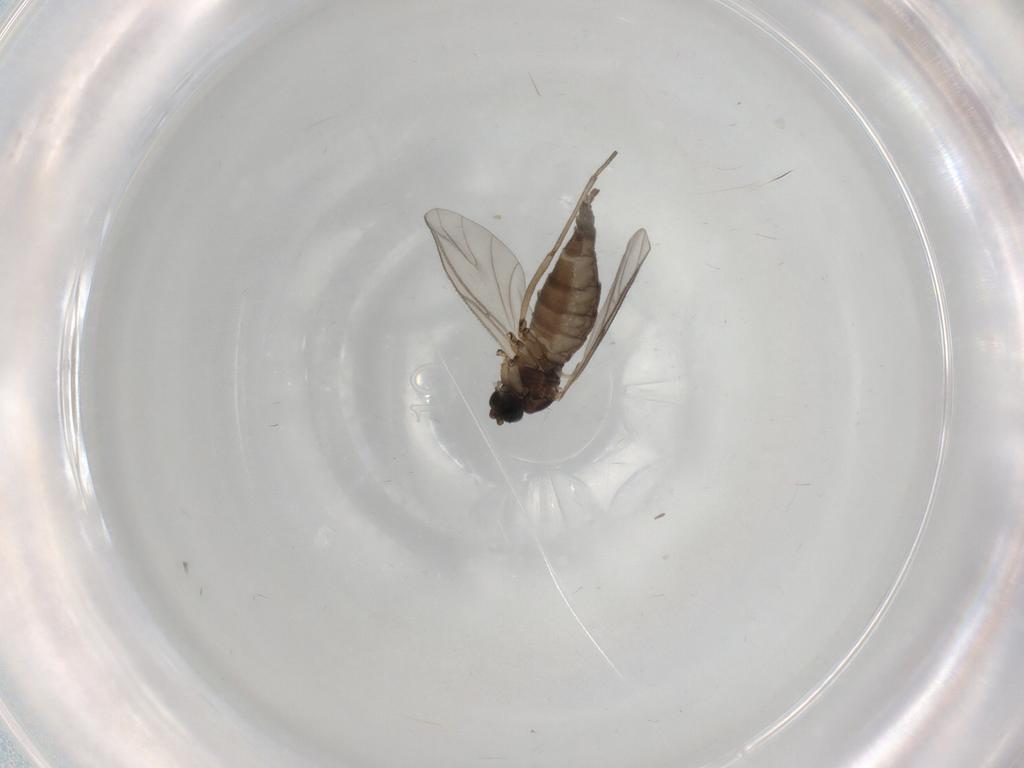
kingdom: Animalia
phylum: Arthropoda
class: Insecta
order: Diptera
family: Sciaridae
